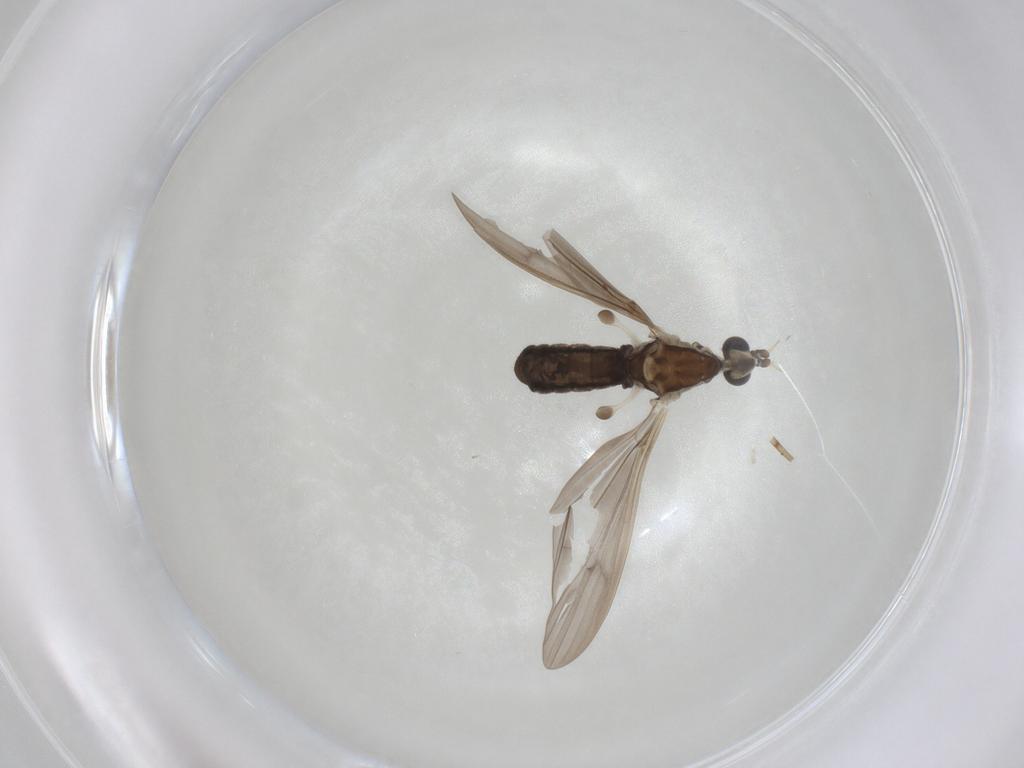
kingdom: Animalia
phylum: Arthropoda
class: Insecta
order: Diptera
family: Limoniidae
